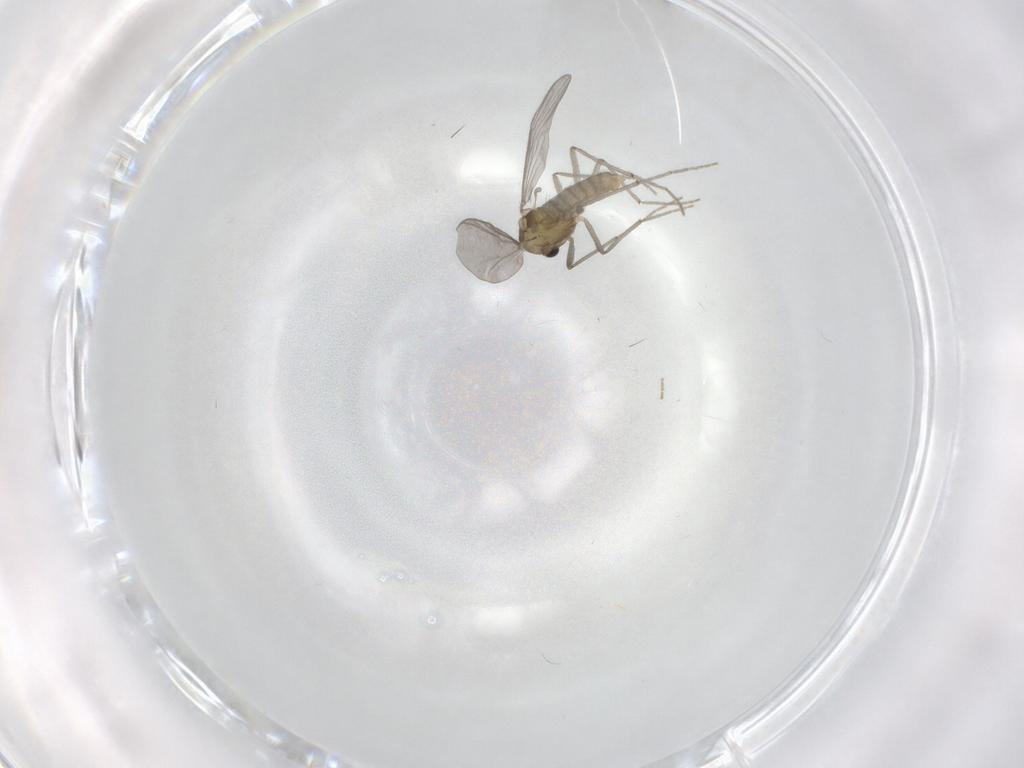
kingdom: Animalia
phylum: Arthropoda
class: Insecta
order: Diptera
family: Chironomidae
